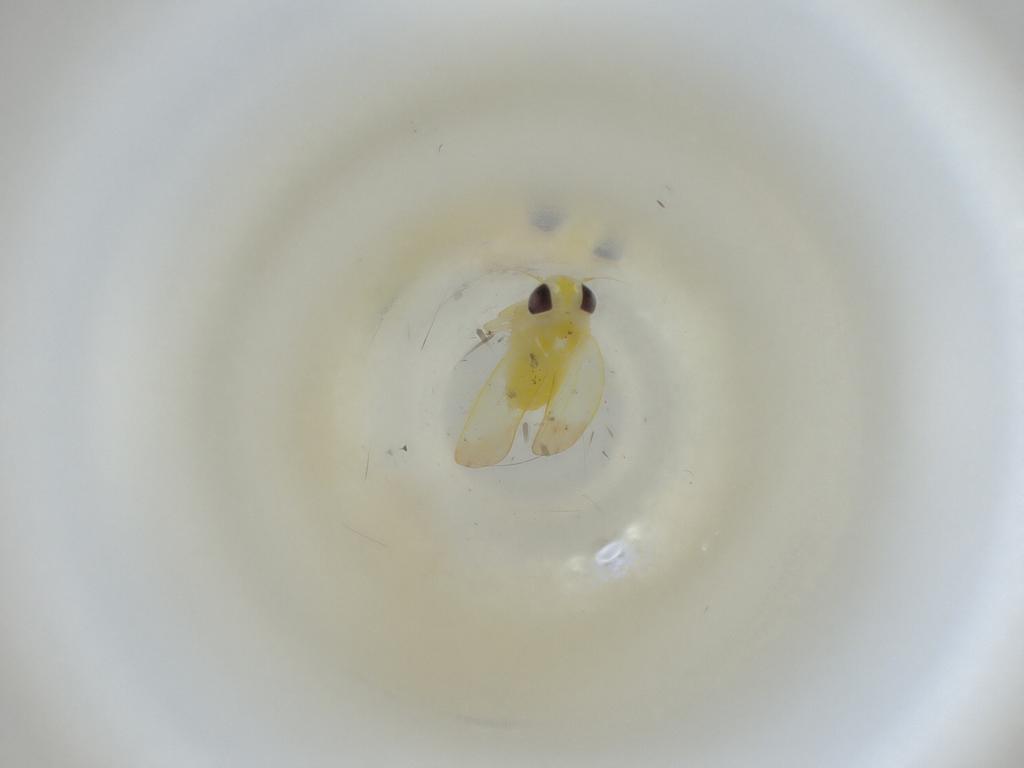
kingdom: Animalia
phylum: Arthropoda
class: Insecta
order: Hemiptera
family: Cicadellidae
